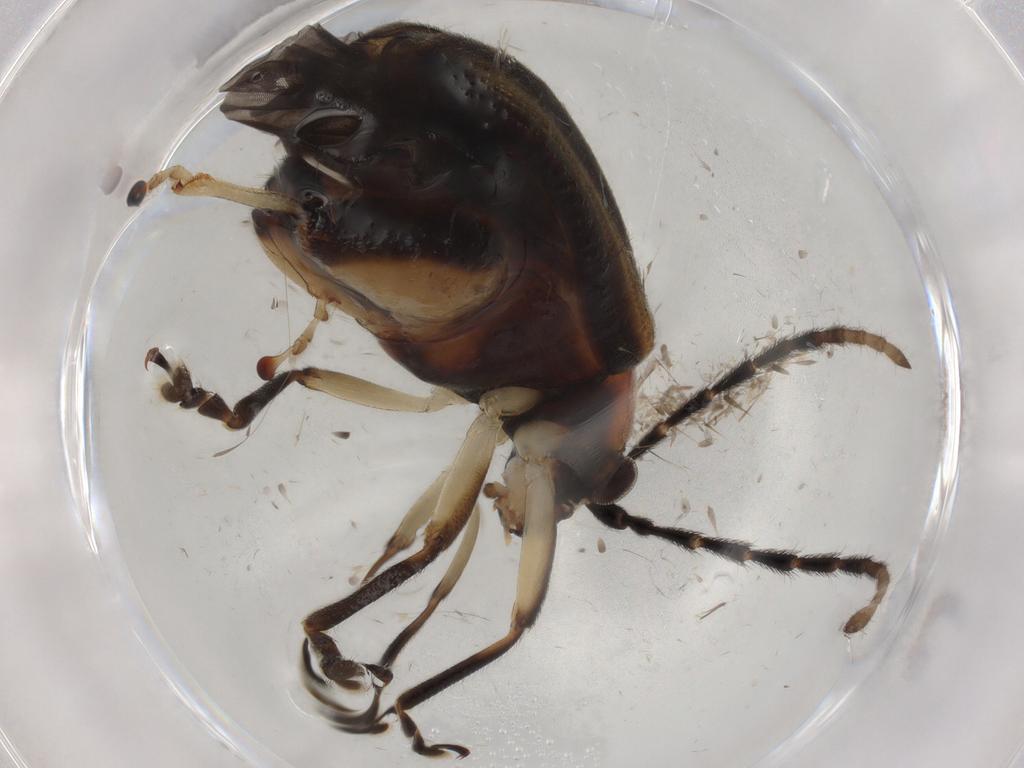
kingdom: Animalia
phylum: Arthropoda
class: Insecta
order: Coleoptera
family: Chrysomelidae
